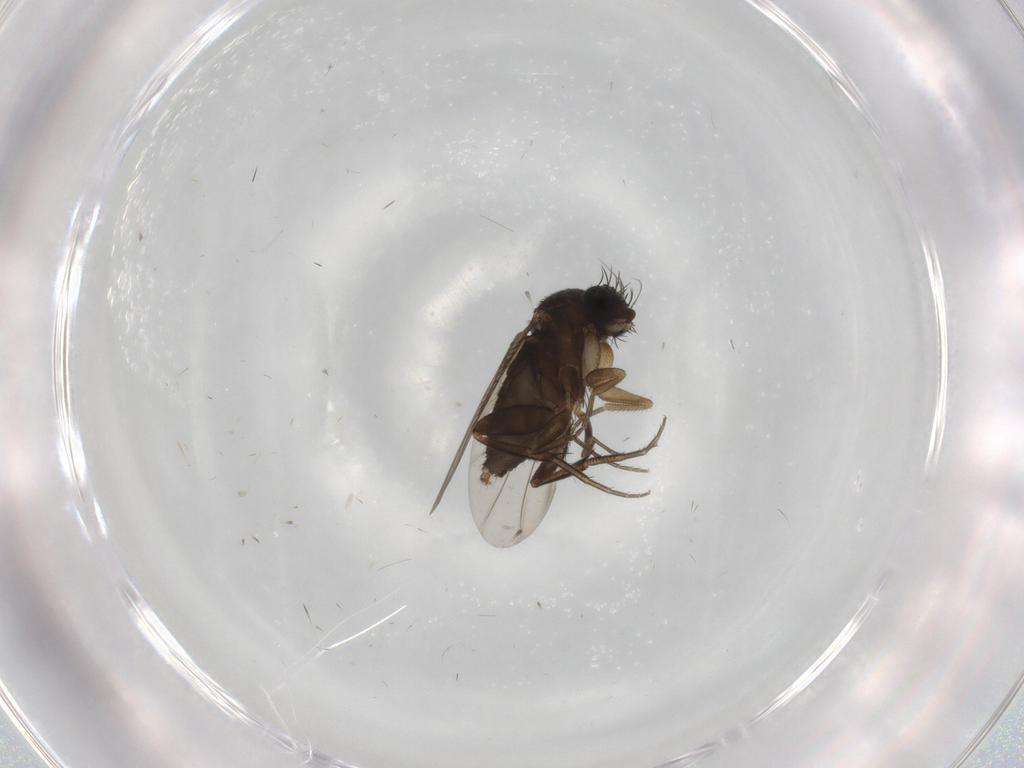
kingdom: Animalia
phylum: Arthropoda
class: Insecta
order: Diptera
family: Phoridae
